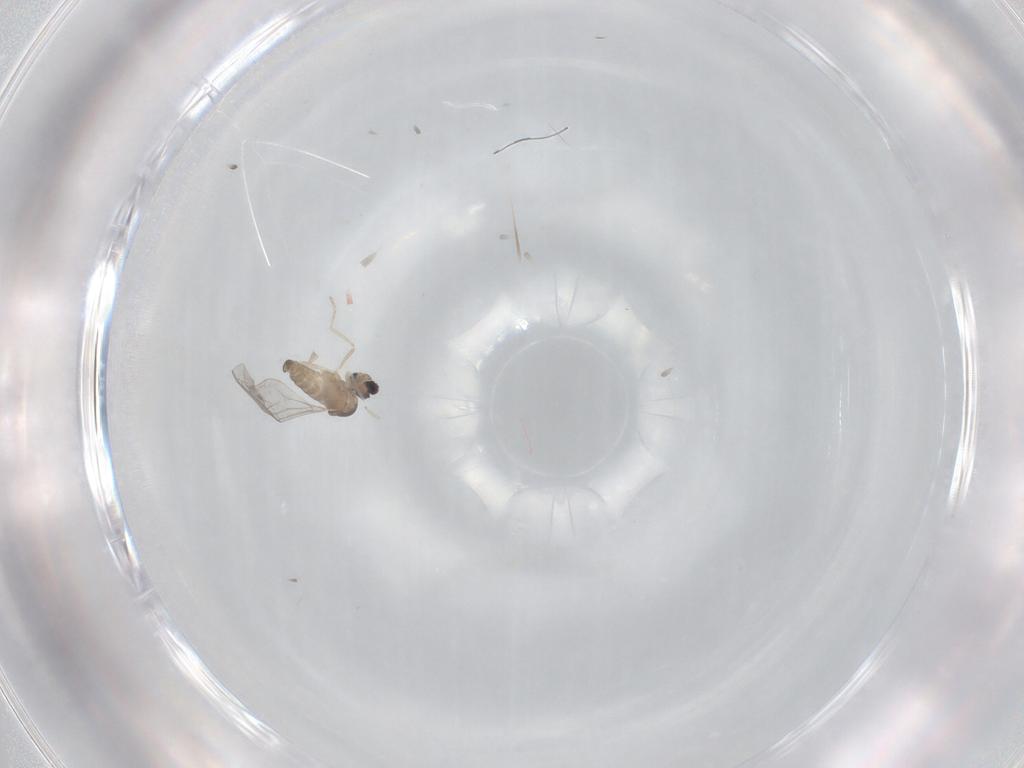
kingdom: Animalia
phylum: Arthropoda
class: Insecta
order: Diptera
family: Cecidomyiidae
